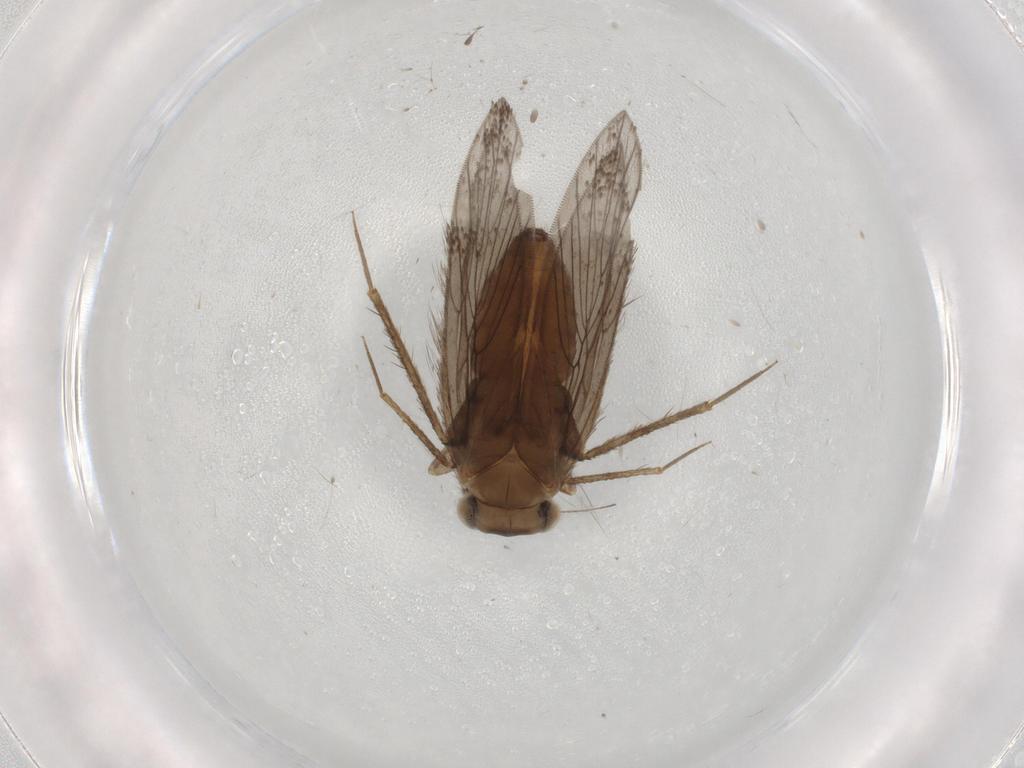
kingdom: Animalia
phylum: Arthropoda
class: Insecta
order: Psocodea
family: Lepidopsocidae
